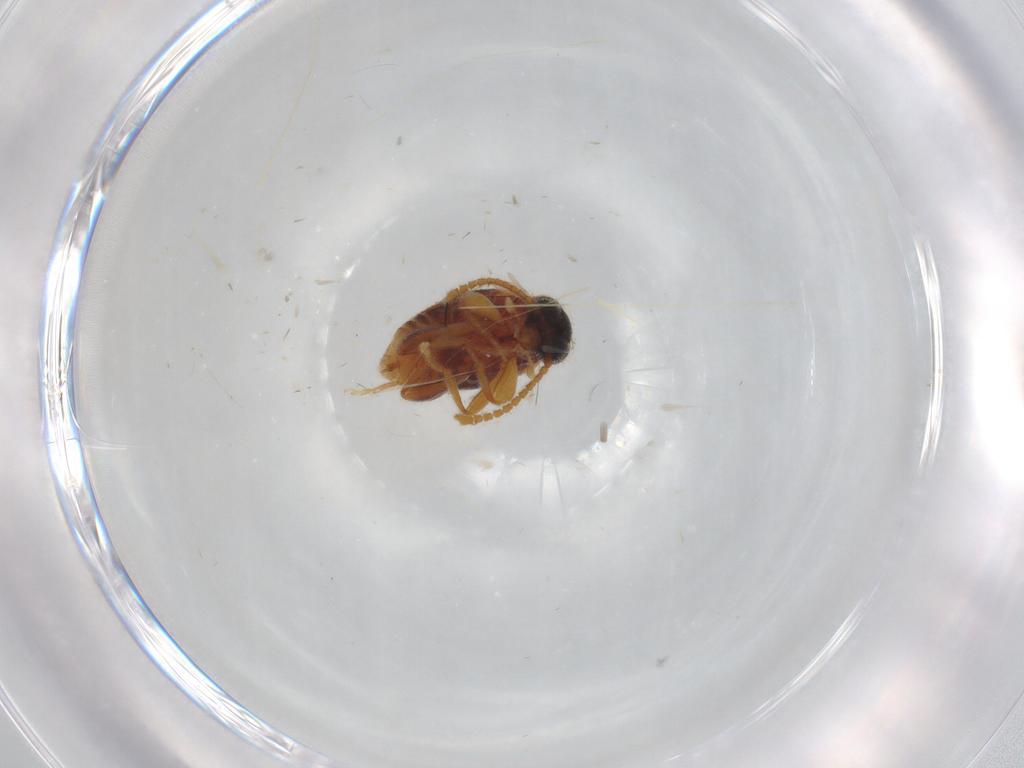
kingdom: Animalia
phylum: Arthropoda
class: Insecta
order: Coleoptera
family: Aderidae
